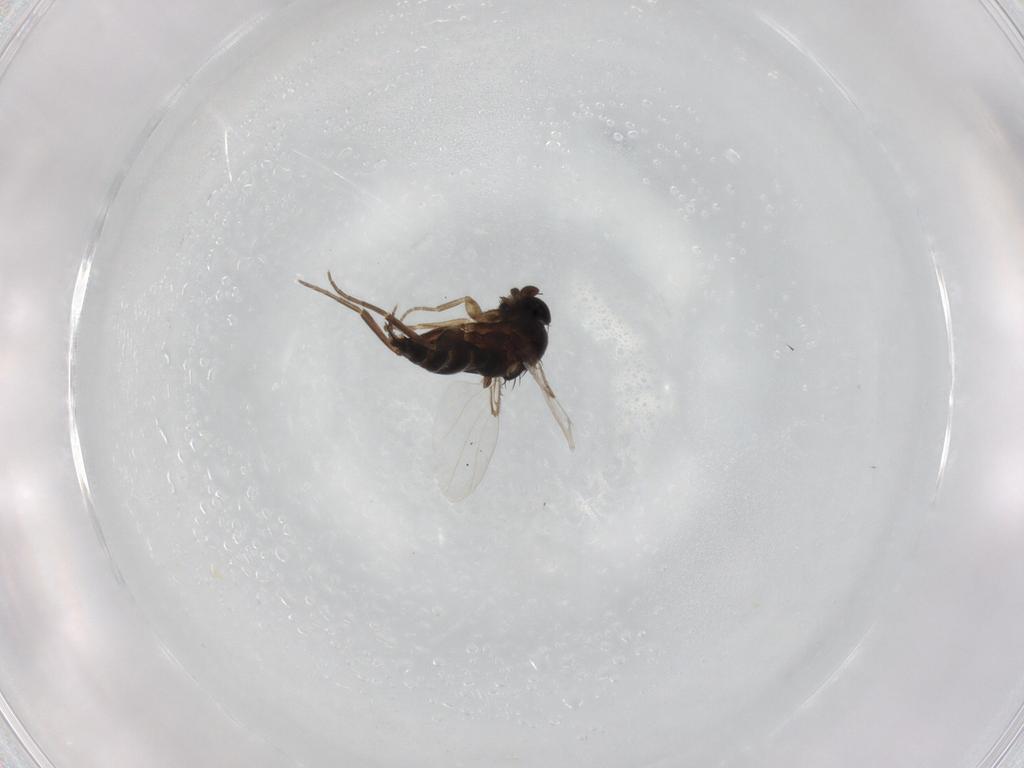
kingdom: Animalia
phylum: Arthropoda
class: Insecta
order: Diptera
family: Phoridae
